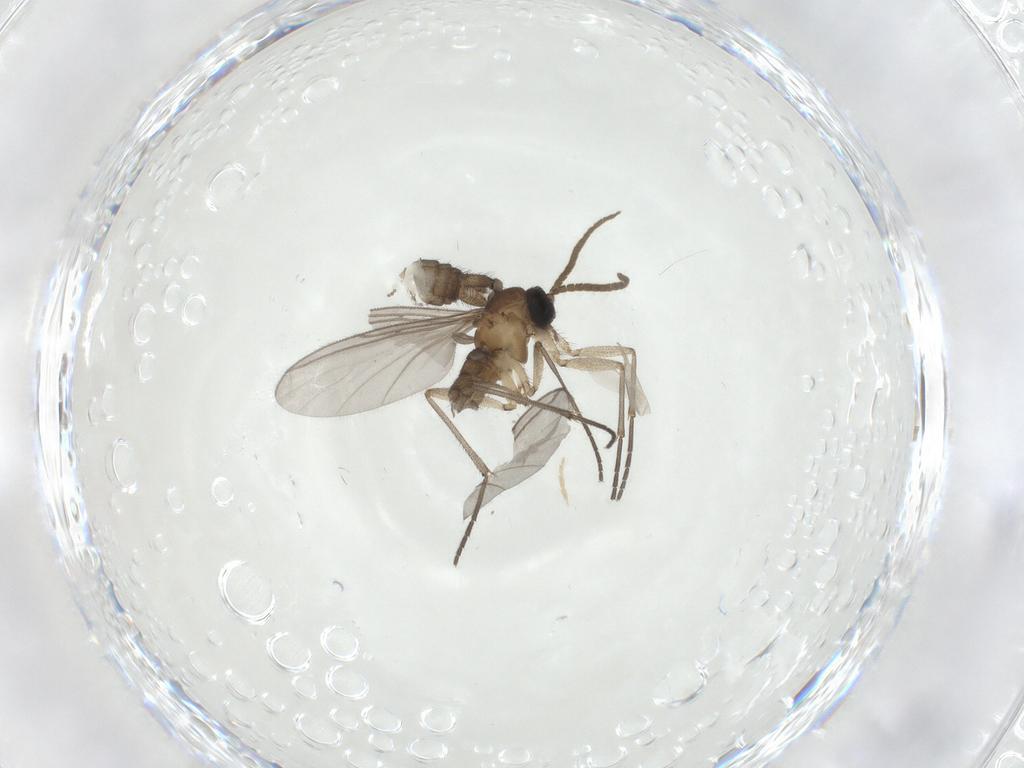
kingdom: Animalia
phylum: Arthropoda
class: Insecta
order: Diptera
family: Cecidomyiidae
